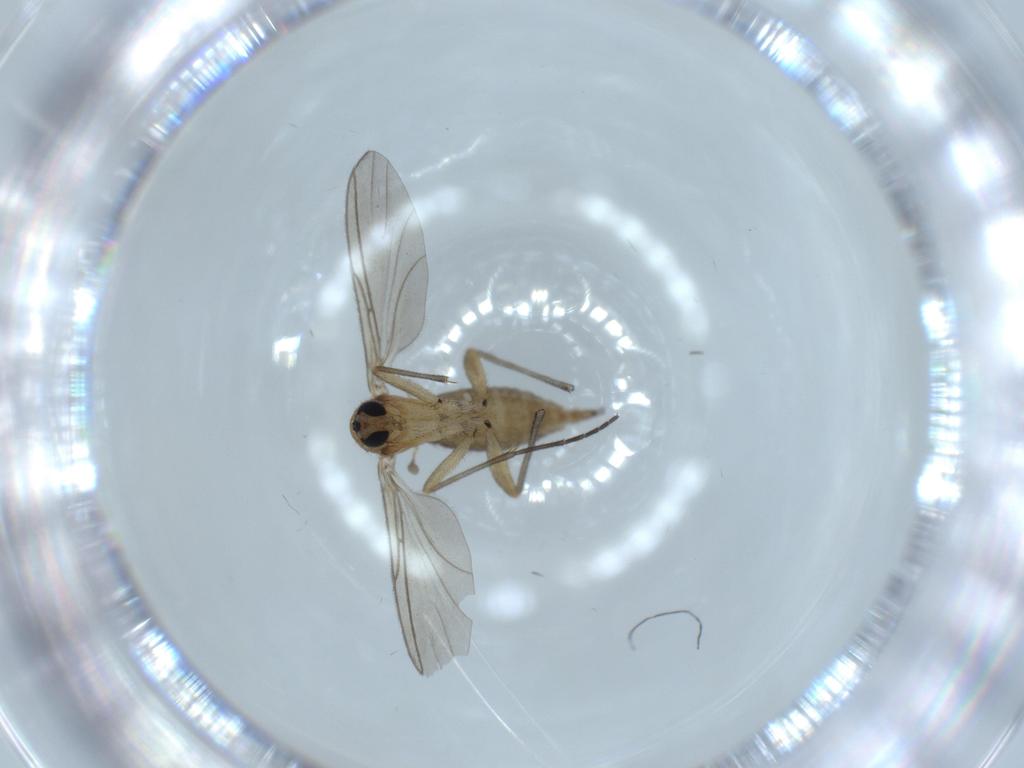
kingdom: Animalia
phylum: Arthropoda
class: Insecta
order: Diptera
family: Sciaridae
